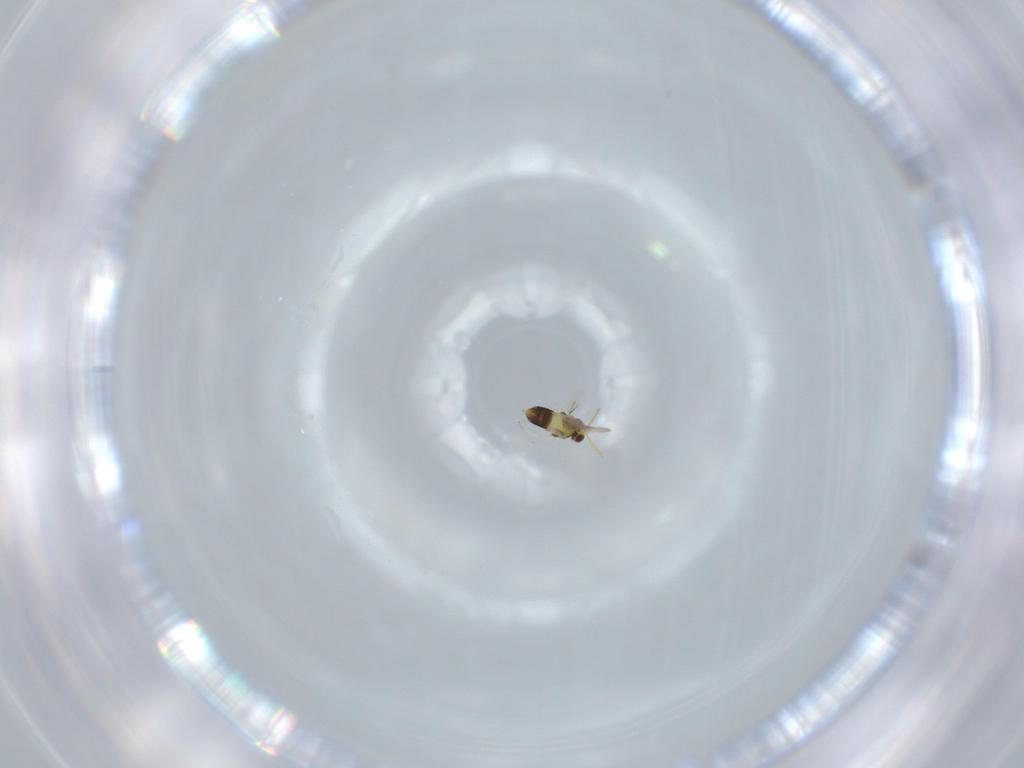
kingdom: Animalia
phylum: Arthropoda
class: Insecta
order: Hymenoptera
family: Aphelinidae
